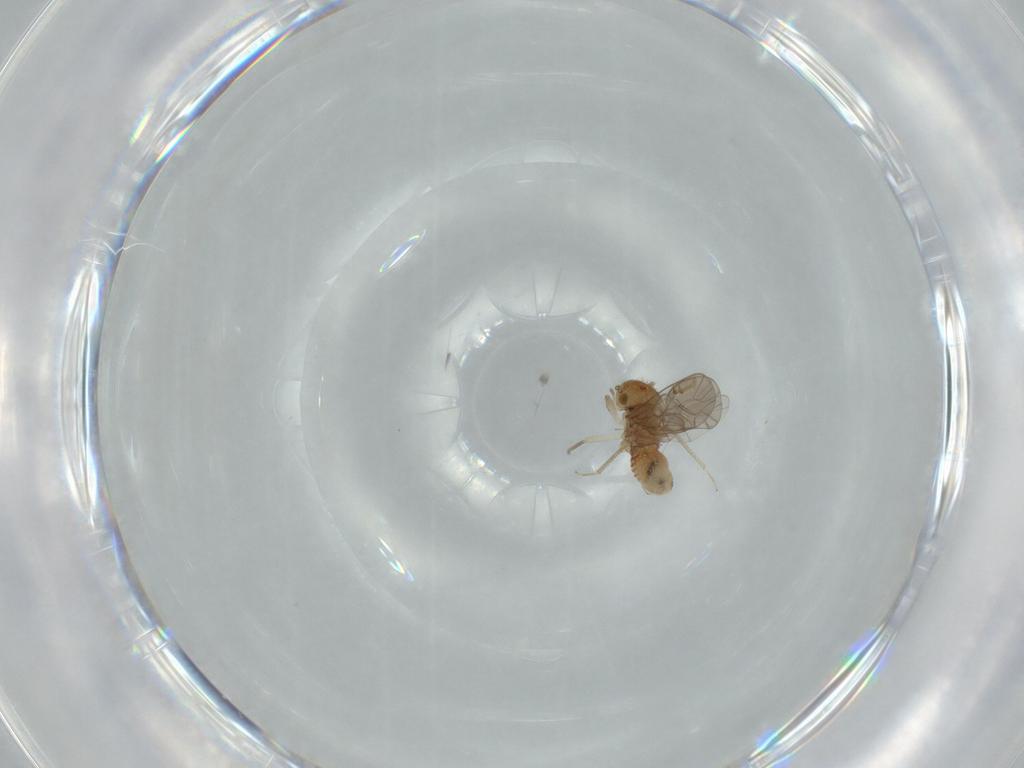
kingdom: Animalia
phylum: Arthropoda
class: Insecta
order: Psocodea
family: Ectopsocidae
